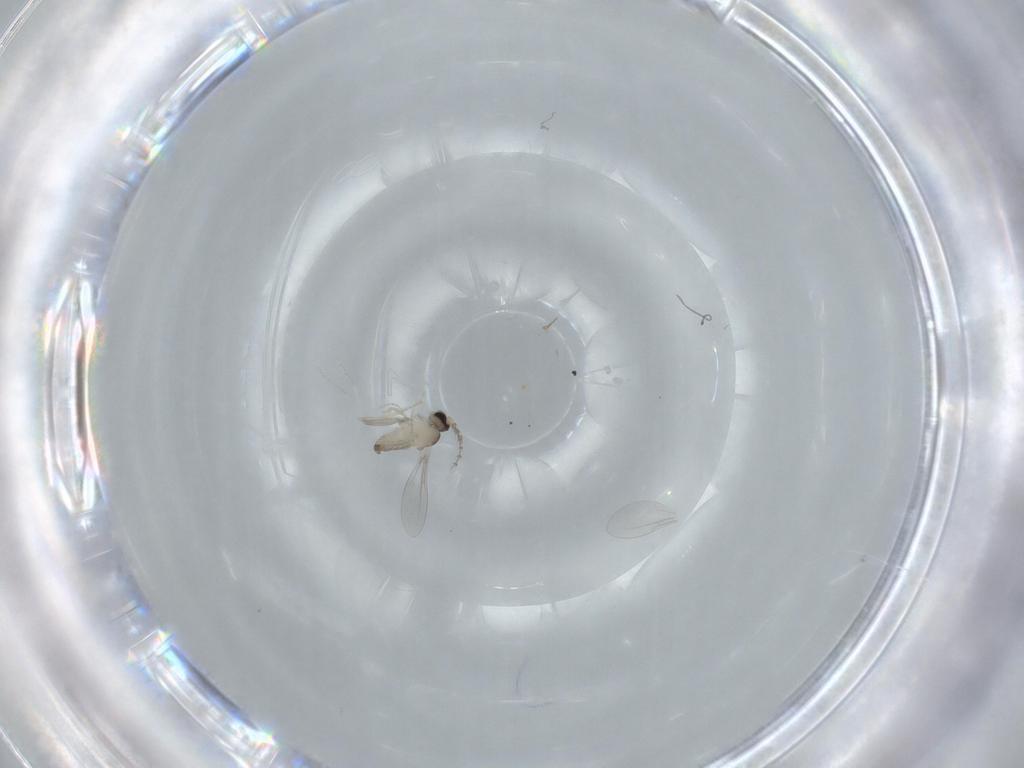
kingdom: Animalia
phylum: Arthropoda
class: Insecta
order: Diptera
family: Cecidomyiidae
